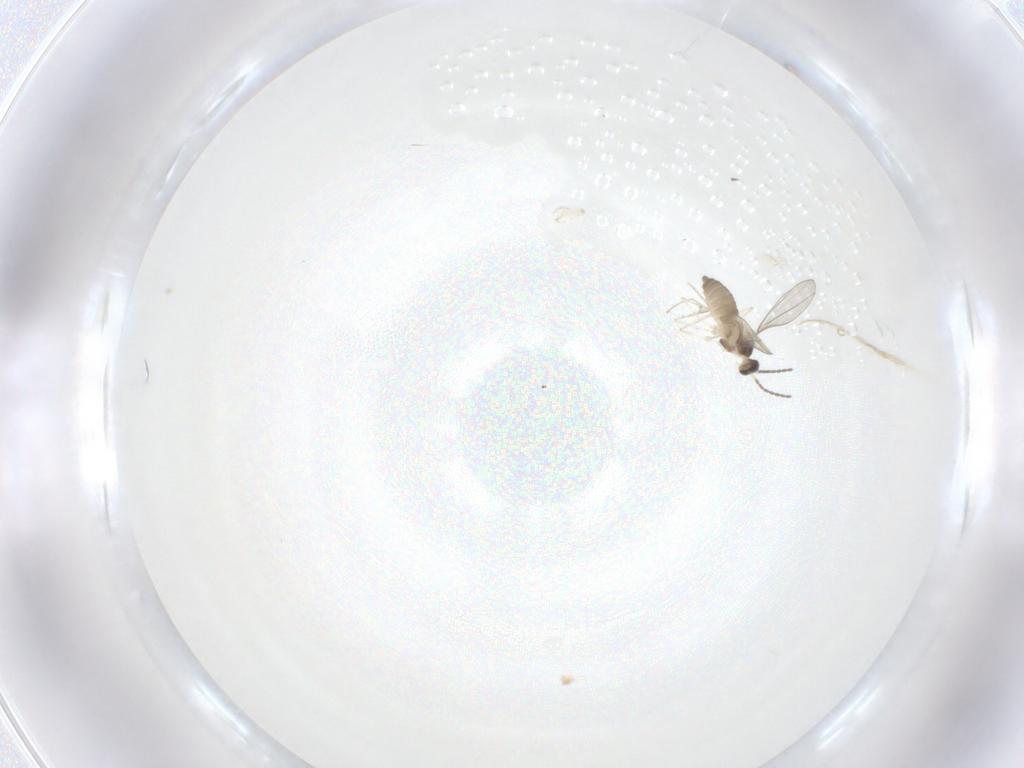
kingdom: Animalia
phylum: Arthropoda
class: Insecta
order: Diptera
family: Cecidomyiidae
